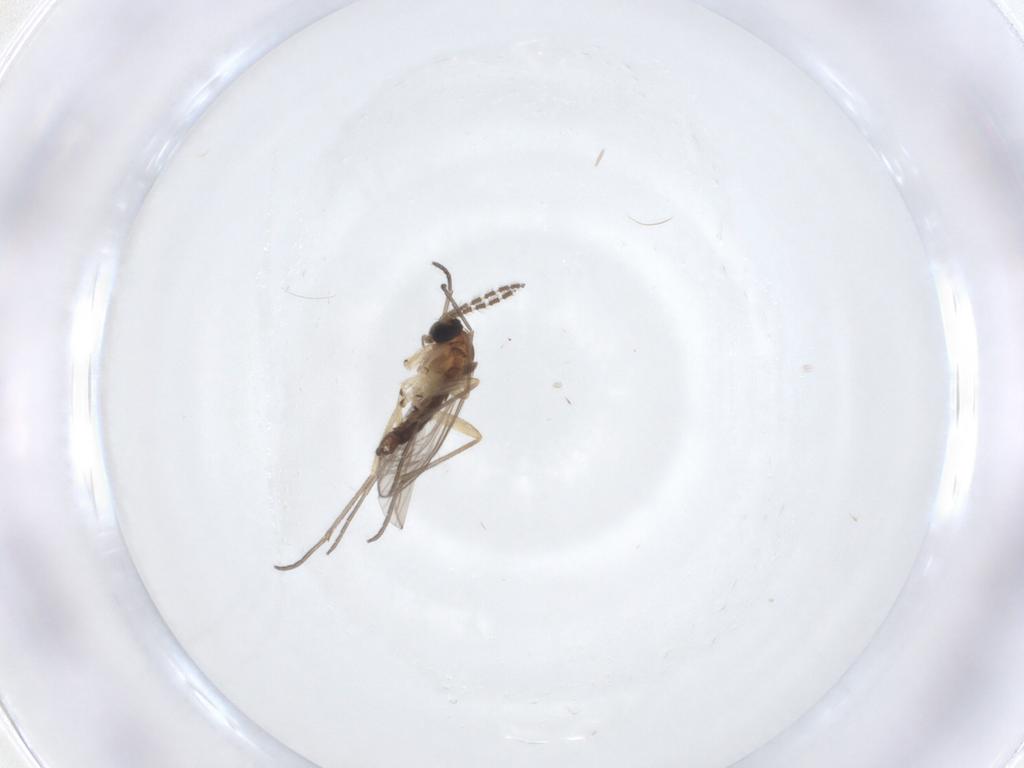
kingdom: Animalia
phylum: Arthropoda
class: Insecta
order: Diptera
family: Sciaridae
